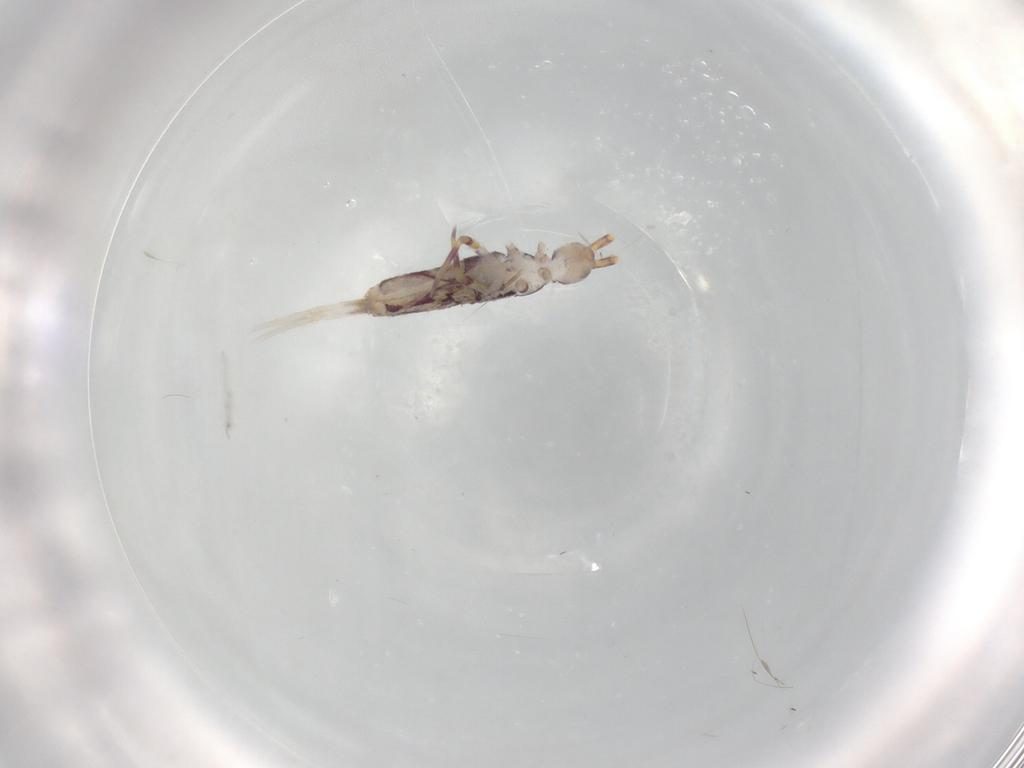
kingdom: Animalia
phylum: Arthropoda
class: Collembola
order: Entomobryomorpha
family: Entomobryidae
